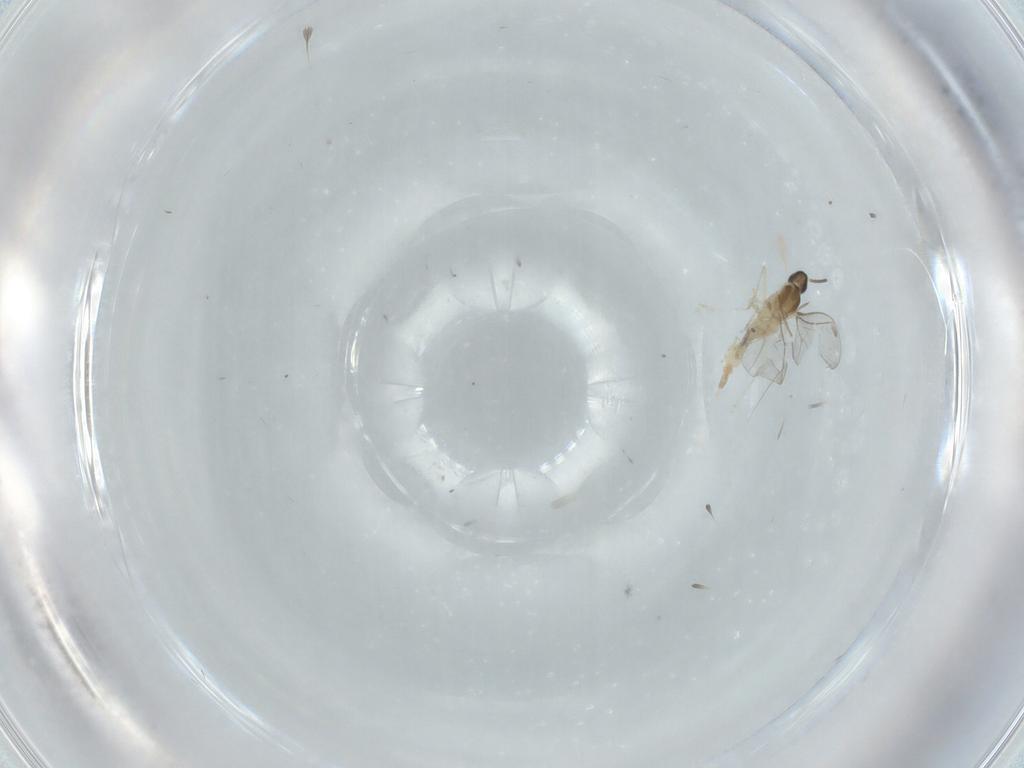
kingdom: Animalia
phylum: Arthropoda
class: Insecta
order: Diptera
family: Cecidomyiidae
